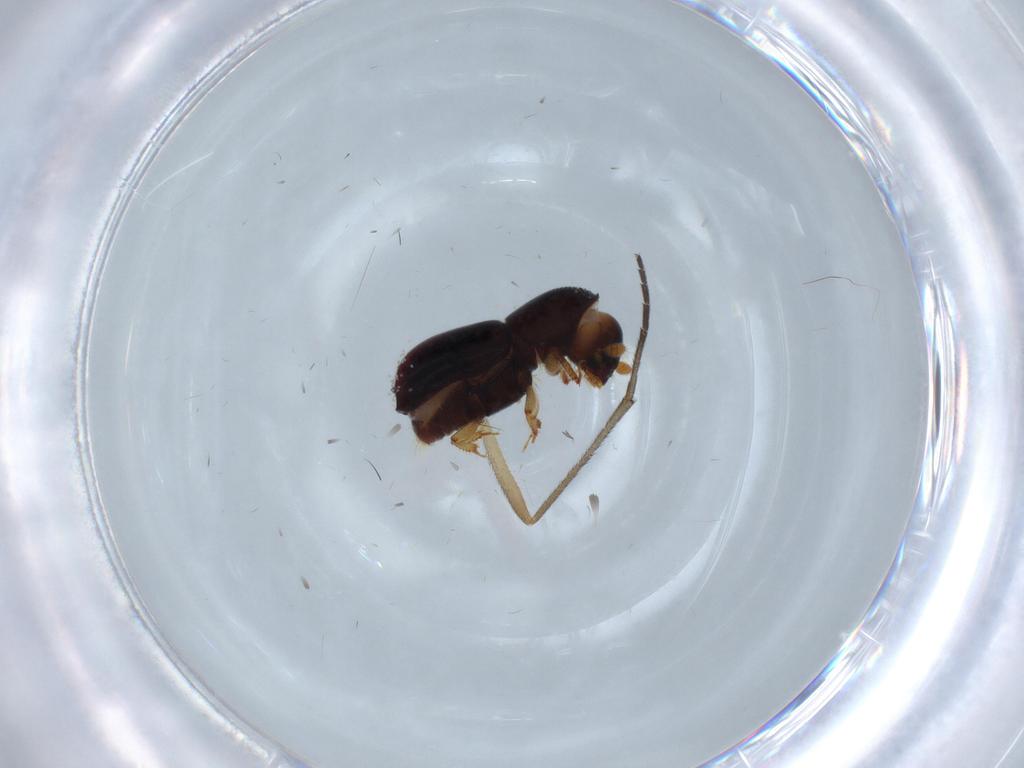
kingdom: Animalia
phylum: Arthropoda
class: Insecta
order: Coleoptera
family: Curculionidae
